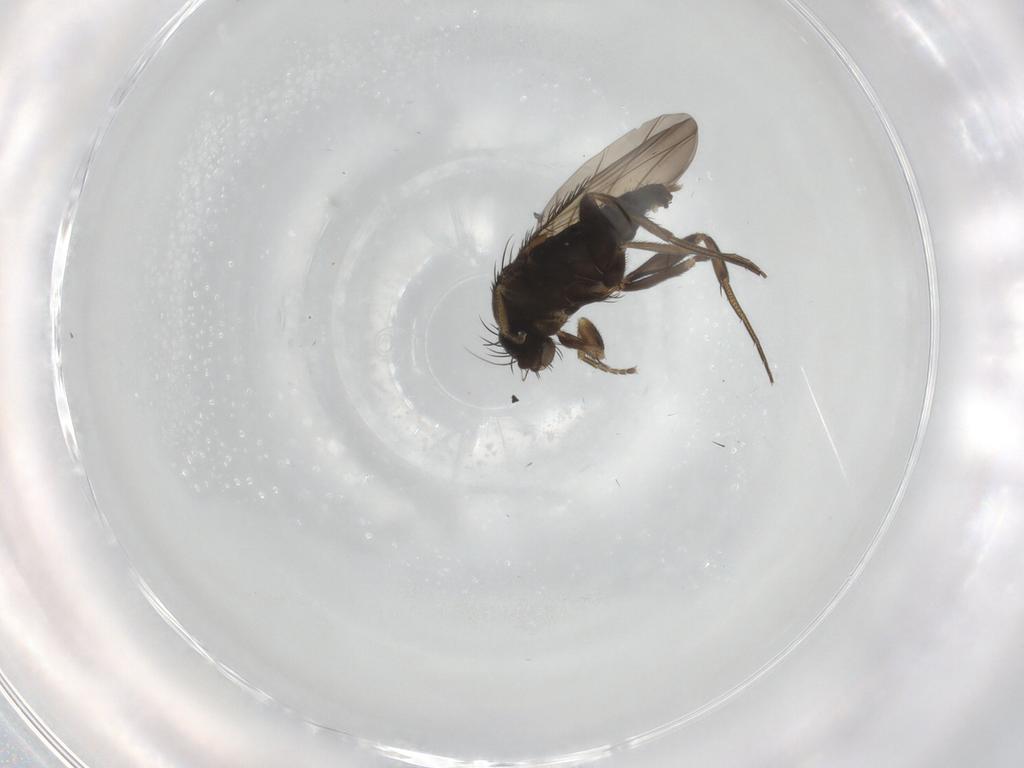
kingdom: Animalia
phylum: Arthropoda
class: Insecta
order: Diptera
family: Phoridae
